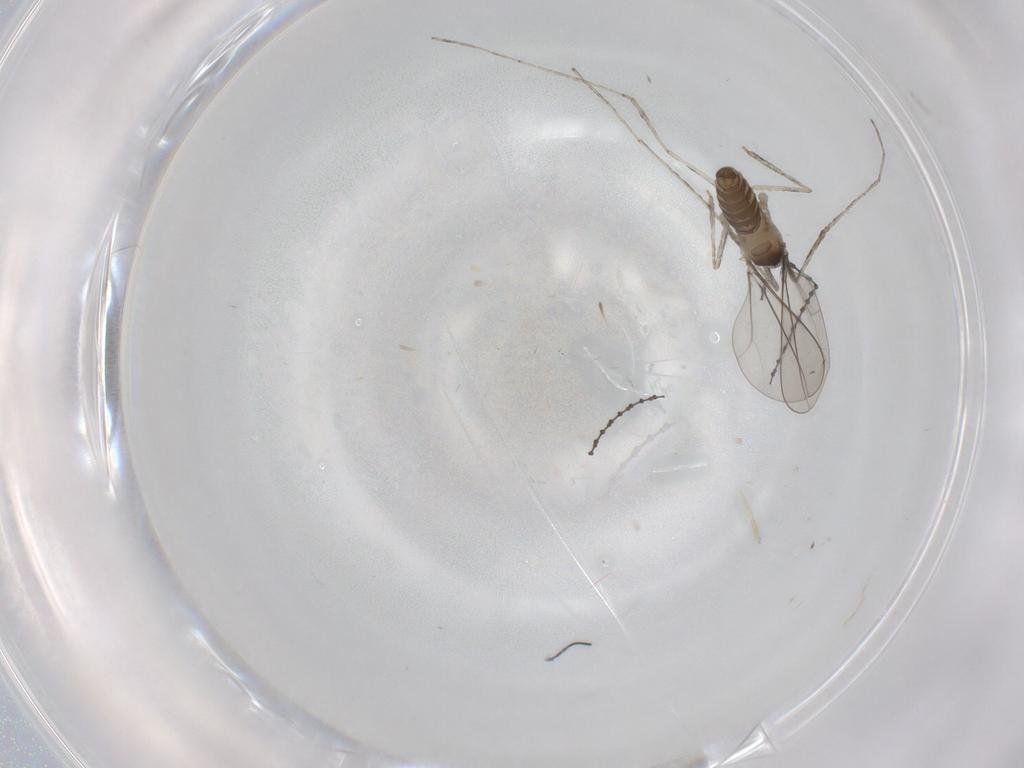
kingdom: Animalia
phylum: Arthropoda
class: Insecta
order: Diptera
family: Cecidomyiidae
